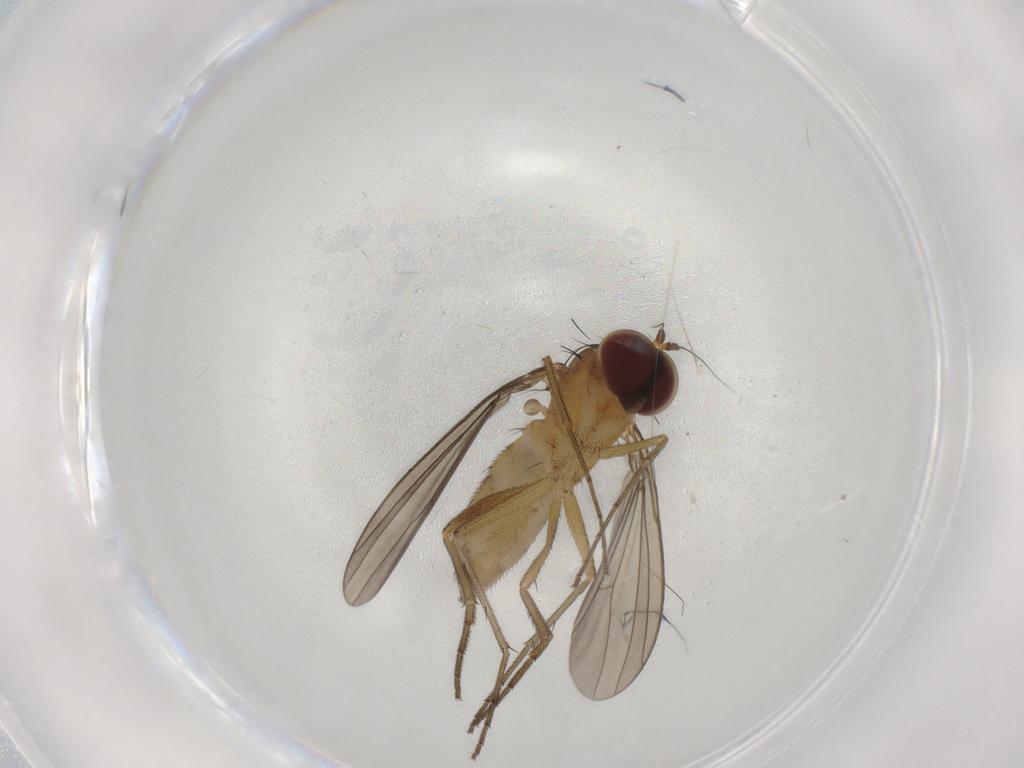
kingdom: Animalia
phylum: Arthropoda
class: Insecta
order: Diptera
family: Dolichopodidae
